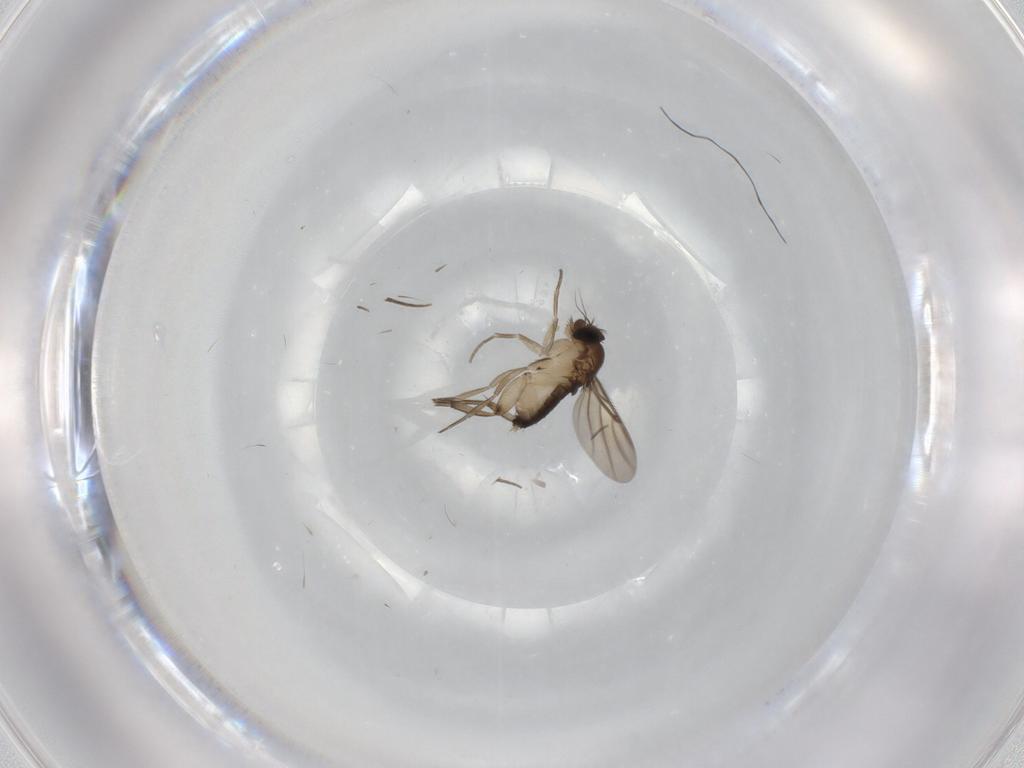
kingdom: Animalia
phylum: Arthropoda
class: Insecta
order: Diptera
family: Phoridae
